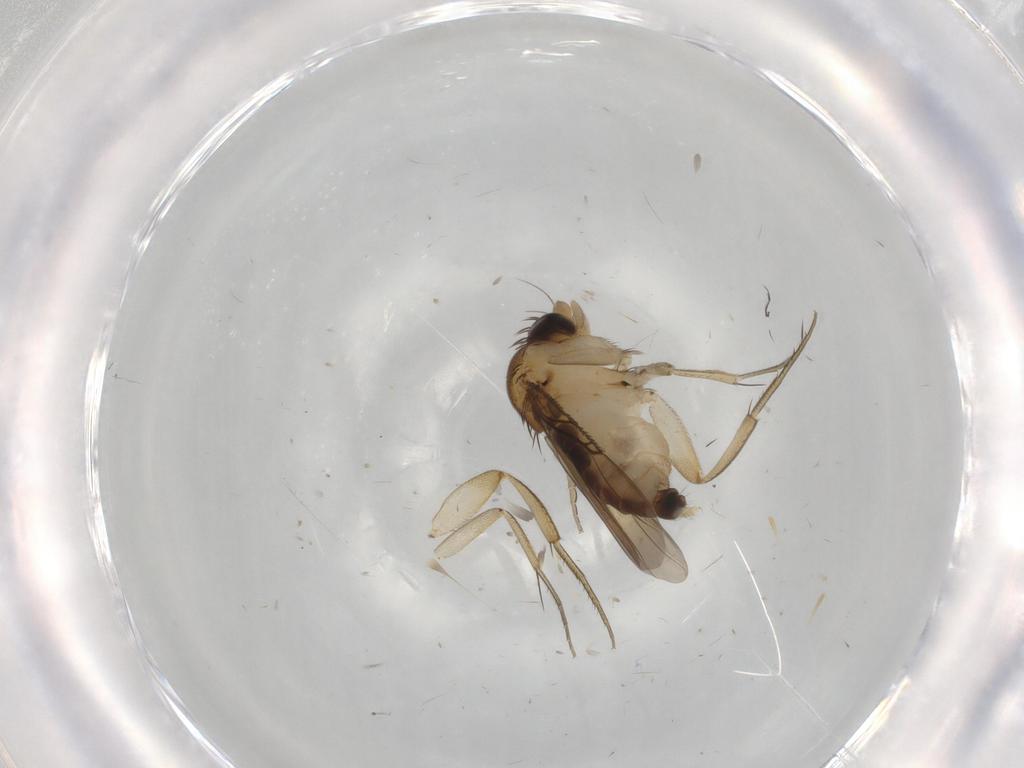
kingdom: Animalia
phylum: Arthropoda
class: Insecta
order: Diptera
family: Phoridae
